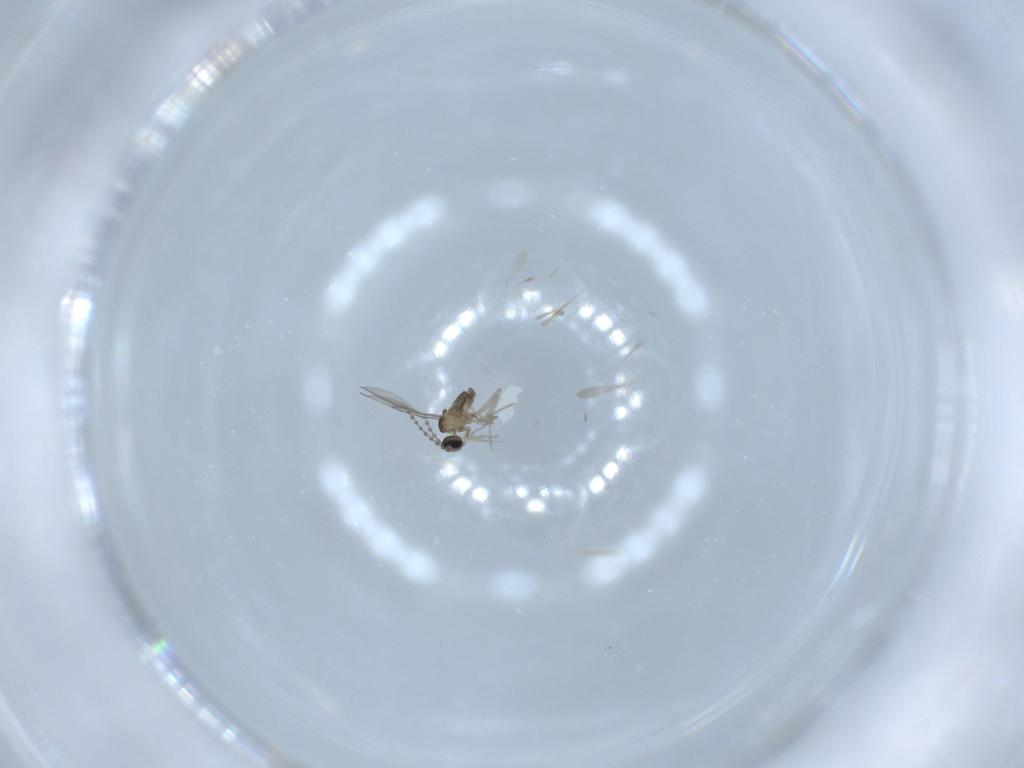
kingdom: Animalia
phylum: Arthropoda
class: Insecta
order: Diptera
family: Cecidomyiidae
